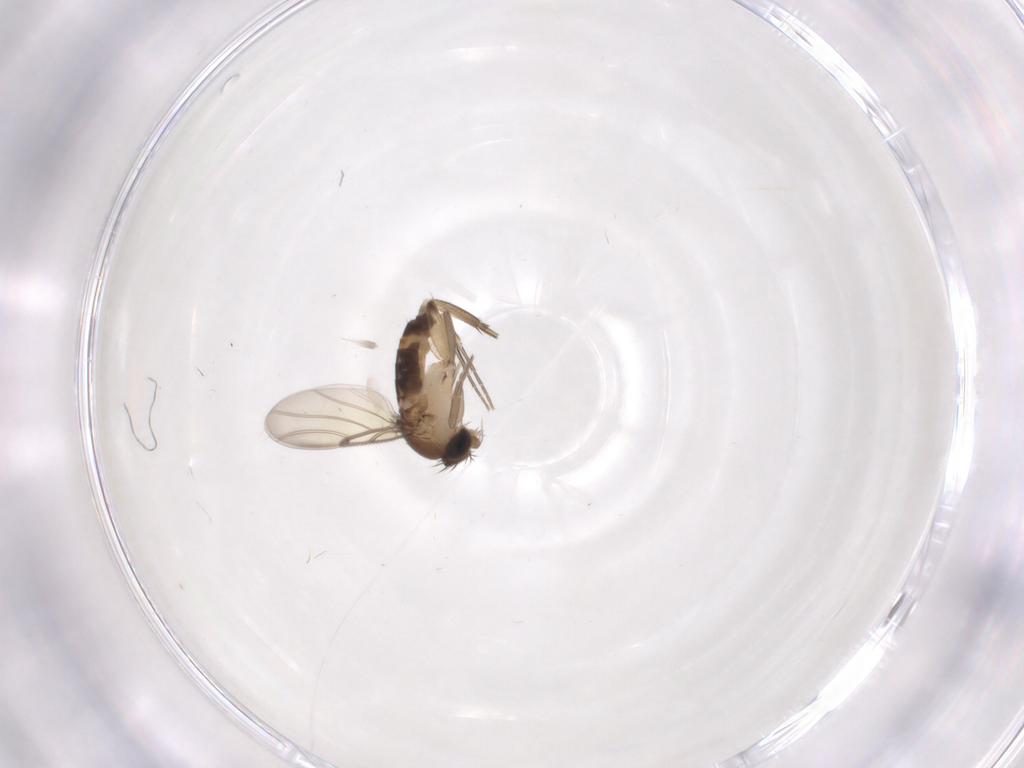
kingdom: Animalia
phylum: Arthropoda
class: Insecta
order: Diptera
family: Phoridae
